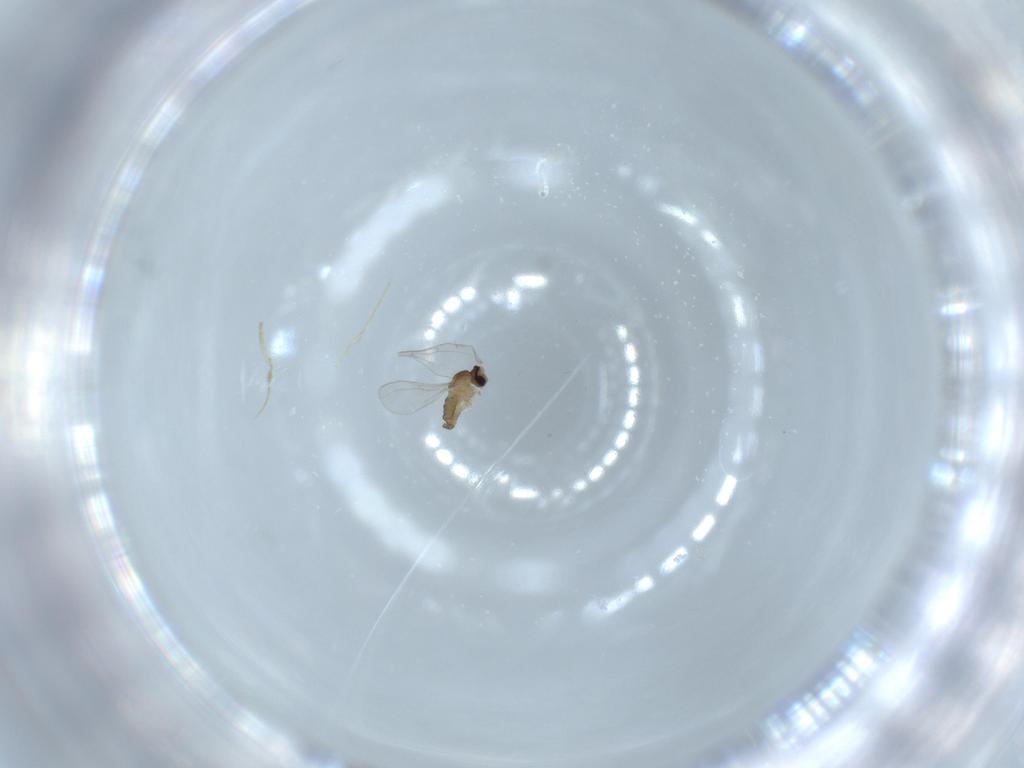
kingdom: Animalia
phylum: Arthropoda
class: Insecta
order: Diptera
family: Cecidomyiidae
